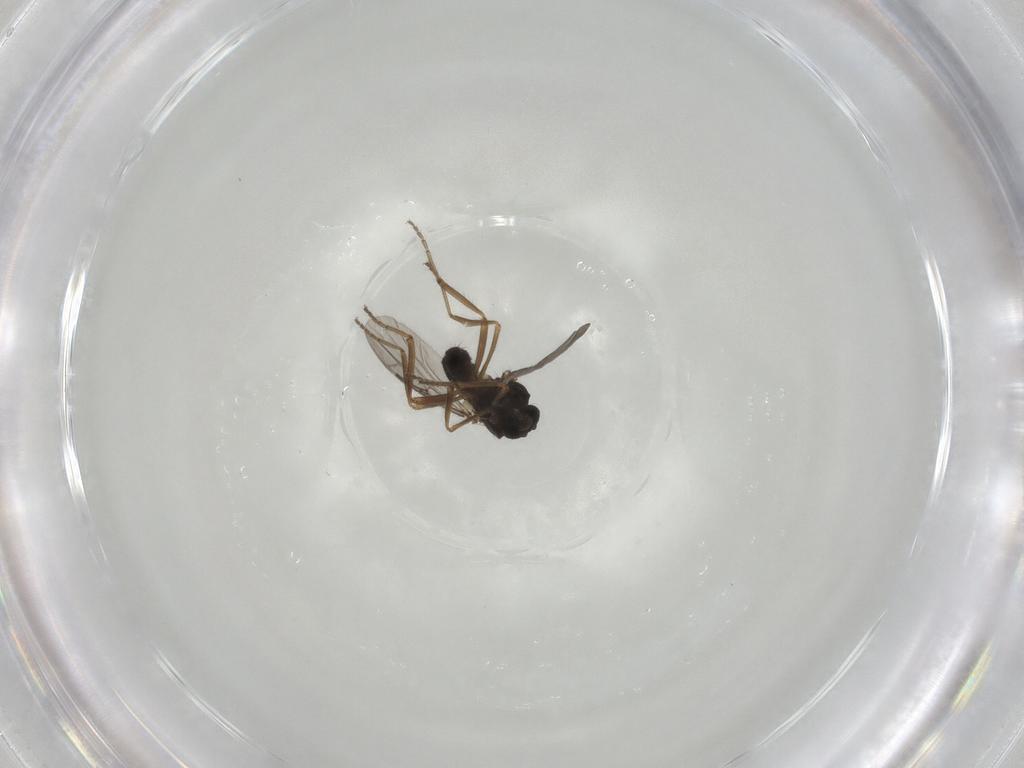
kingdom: Animalia
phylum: Arthropoda
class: Insecta
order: Diptera
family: Ceratopogonidae
